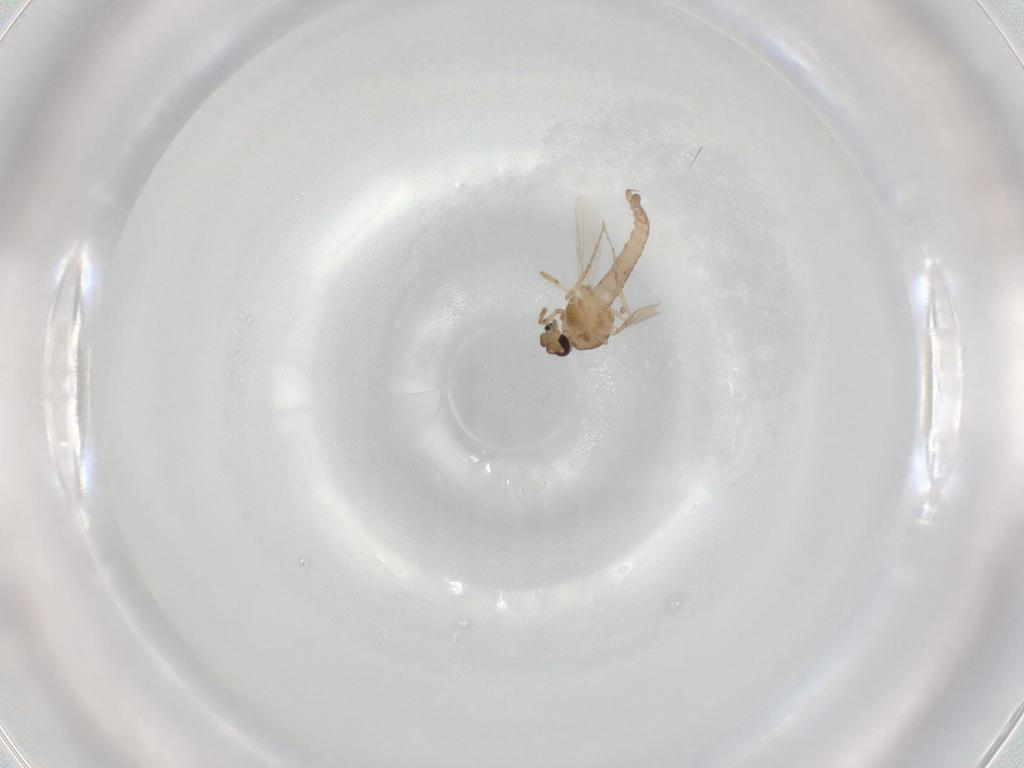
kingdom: Animalia
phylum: Arthropoda
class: Insecta
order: Diptera
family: Ceratopogonidae
